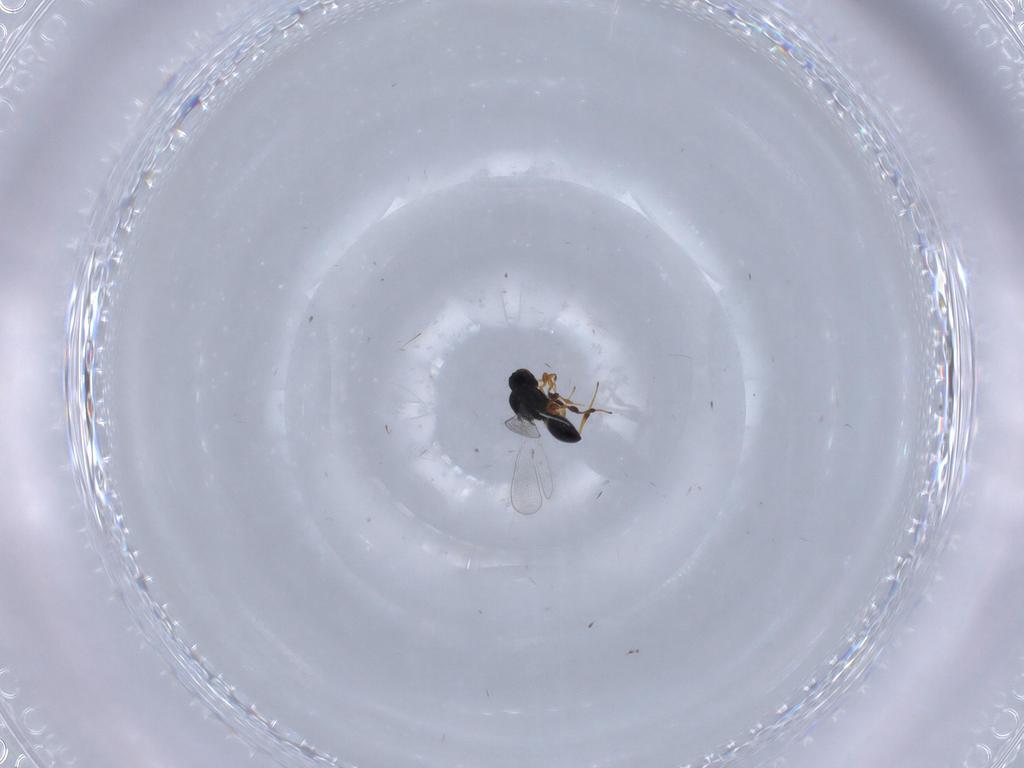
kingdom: Animalia
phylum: Arthropoda
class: Insecta
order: Hymenoptera
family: Platygastridae
